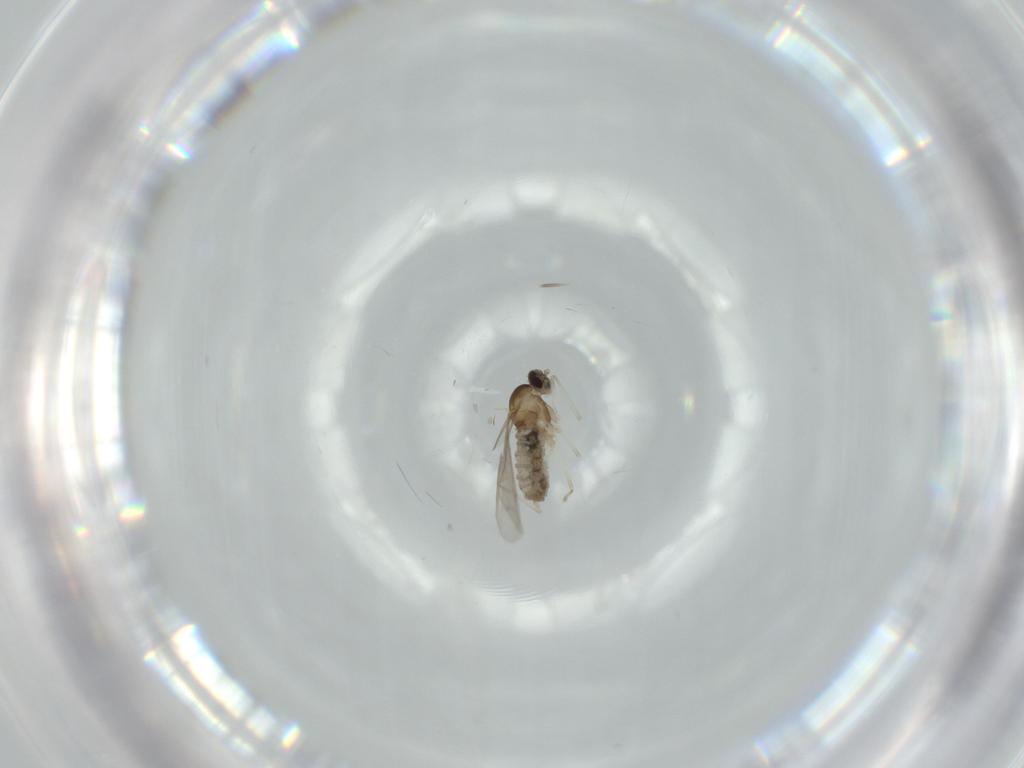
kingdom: Animalia
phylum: Arthropoda
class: Insecta
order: Diptera
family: Cecidomyiidae
